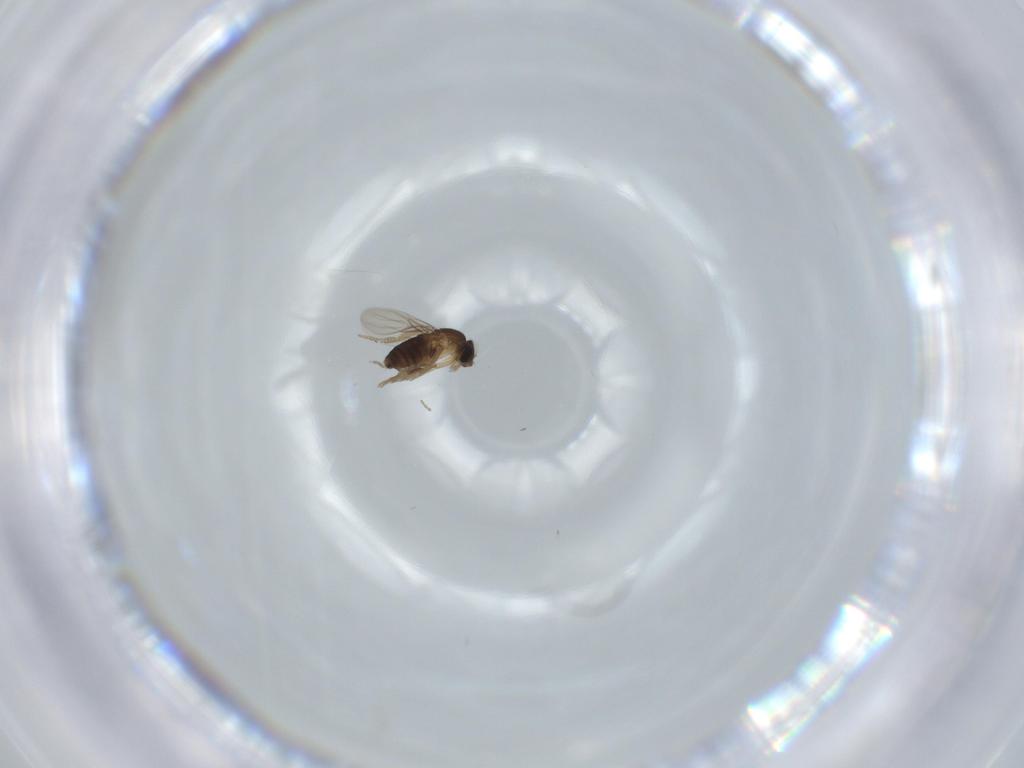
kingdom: Animalia
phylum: Arthropoda
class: Insecta
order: Diptera
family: Phoridae
